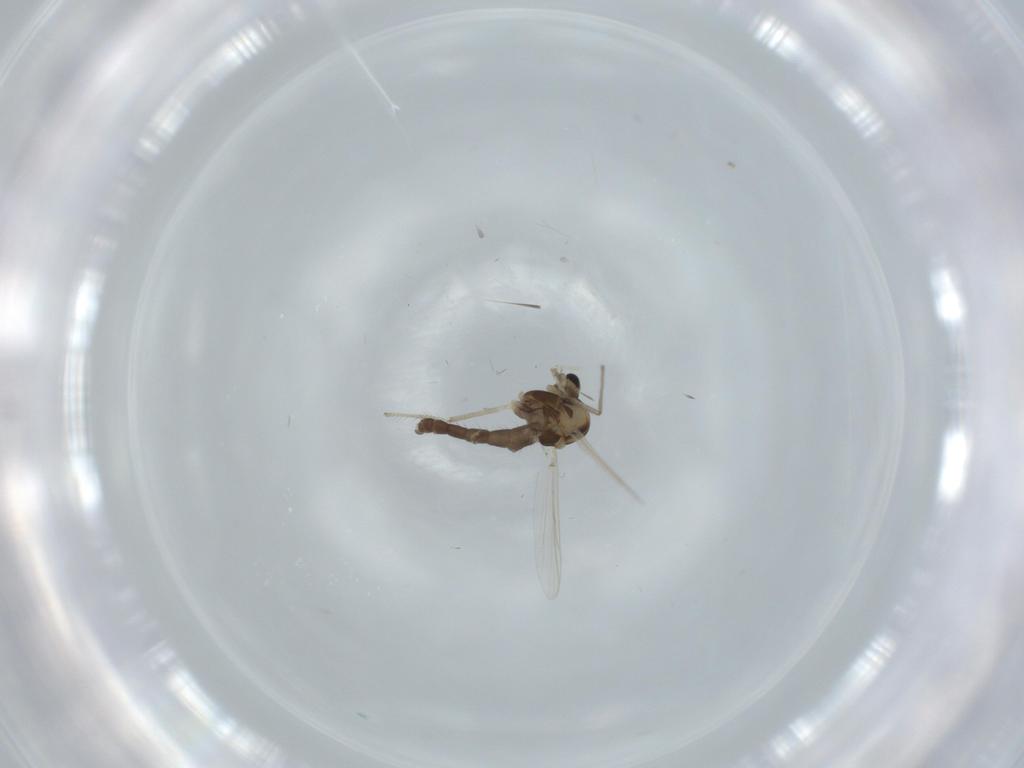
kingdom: Animalia
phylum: Arthropoda
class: Insecta
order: Diptera
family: Chironomidae
